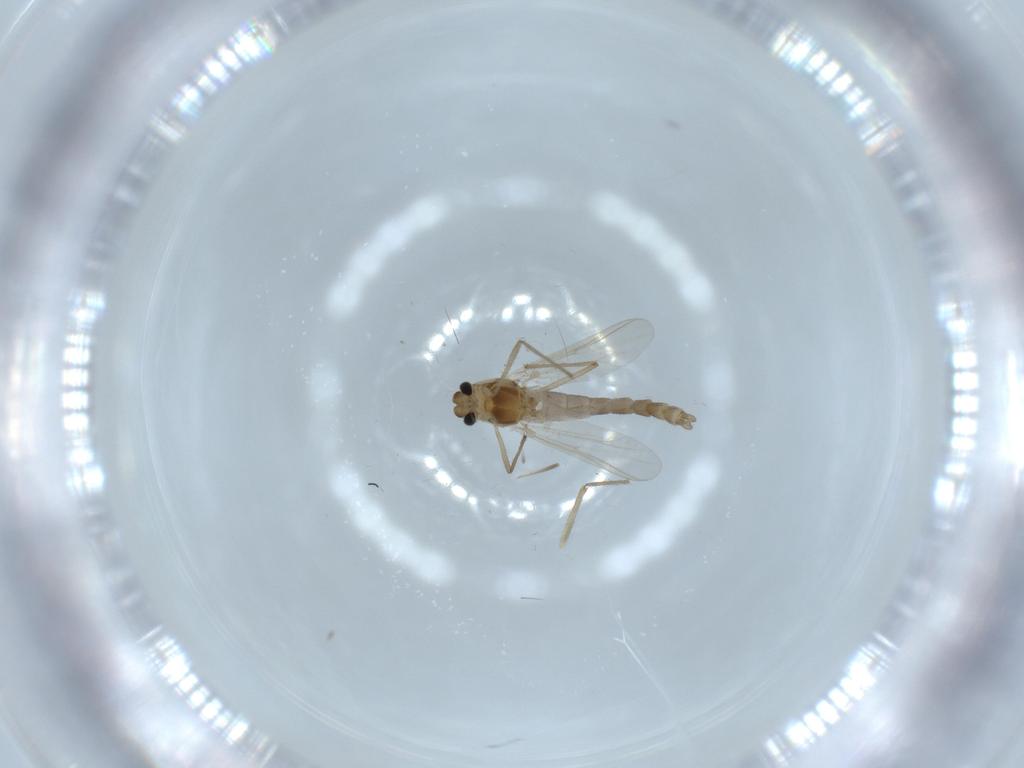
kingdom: Animalia
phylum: Arthropoda
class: Insecta
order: Diptera
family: Chironomidae
